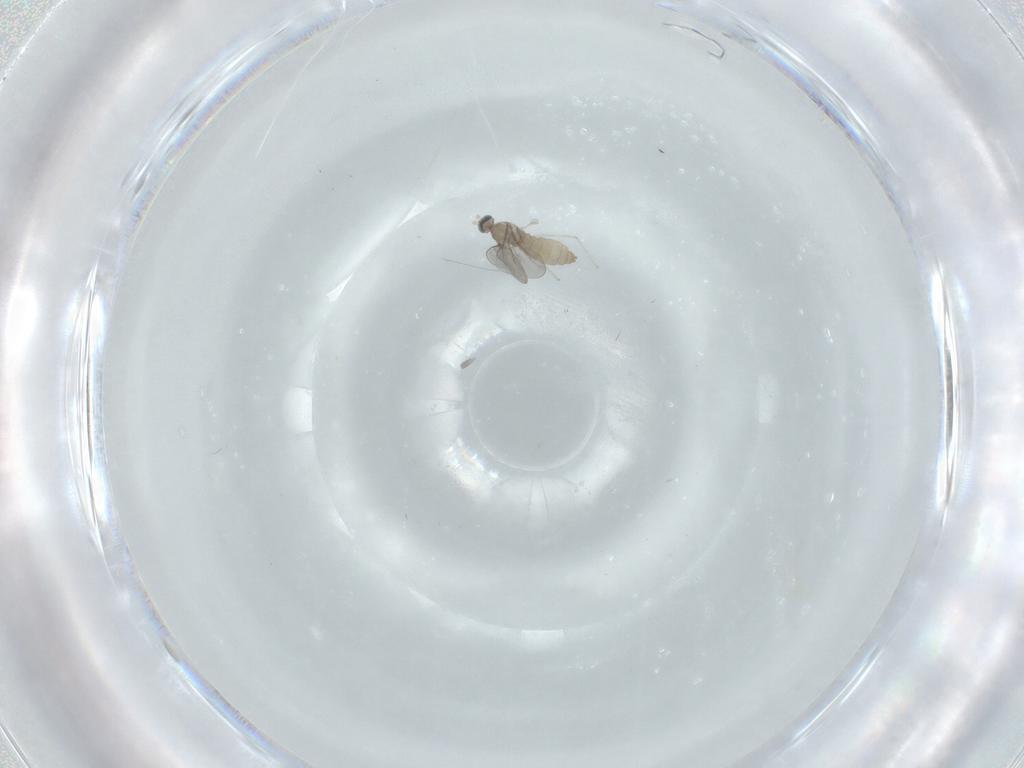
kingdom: Animalia
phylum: Arthropoda
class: Insecta
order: Diptera
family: Cecidomyiidae
